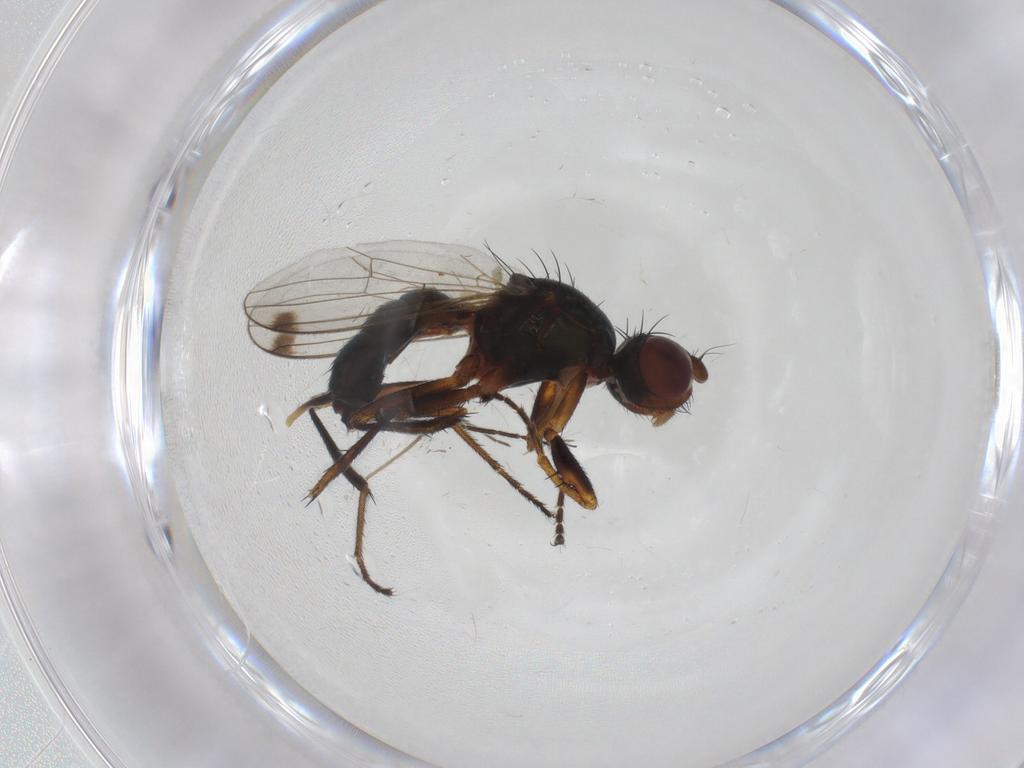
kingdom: Animalia
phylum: Arthropoda
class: Insecta
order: Diptera
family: Sepsidae
